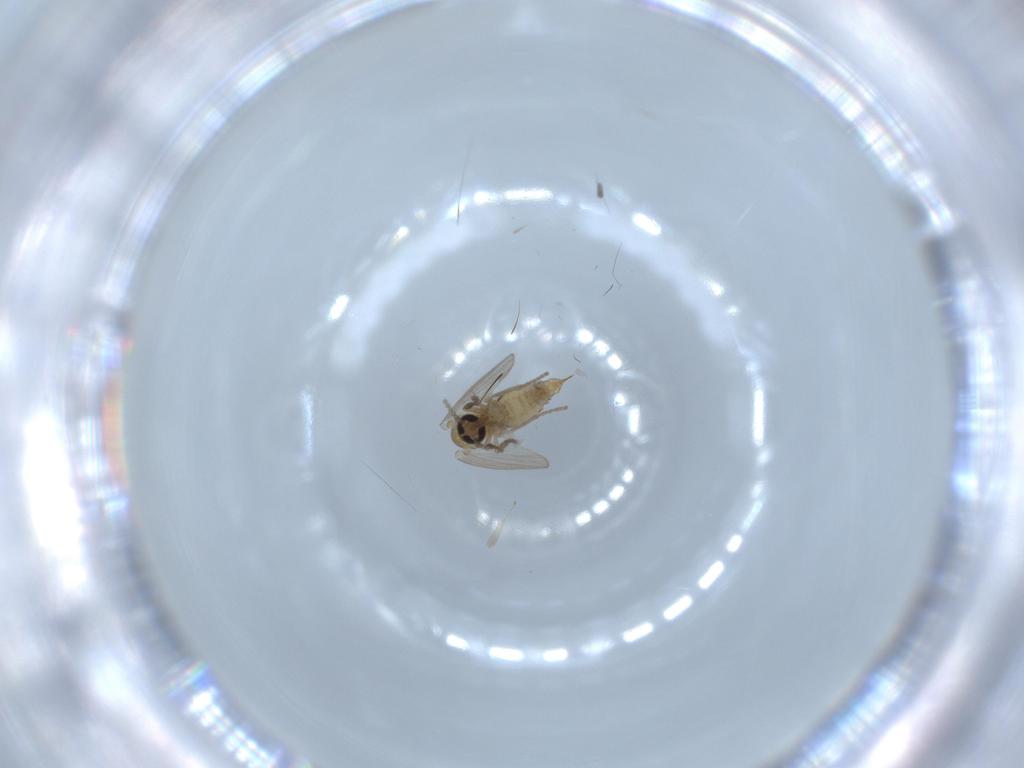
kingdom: Animalia
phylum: Arthropoda
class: Insecta
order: Diptera
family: Psychodidae
